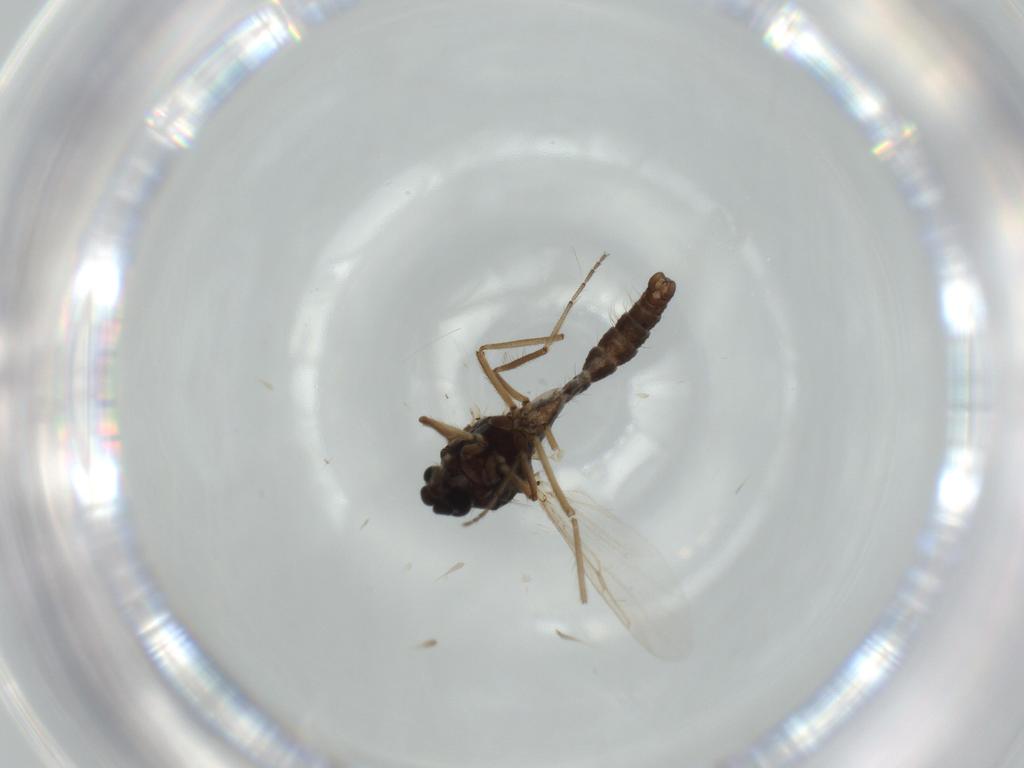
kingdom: Animalia
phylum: Arthropoda
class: Insecta
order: Diptera
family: Ceratopogonidae
